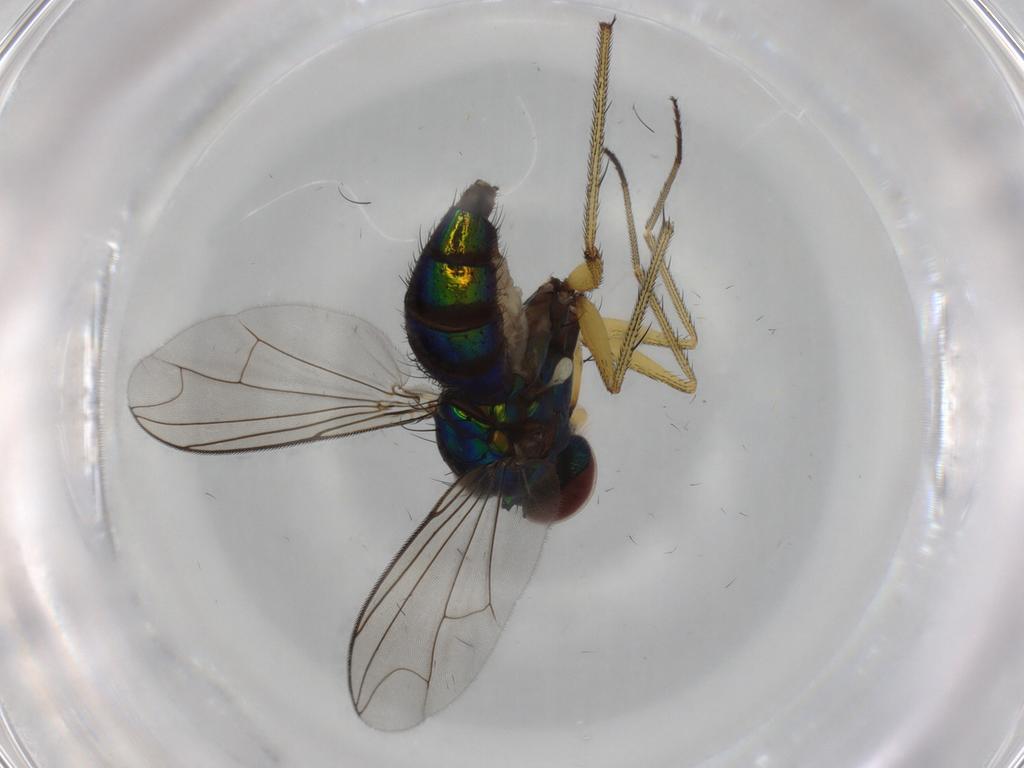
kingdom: Animalia
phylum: Arthropoda
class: Insecta
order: Diptera
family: Dolichopodidae
